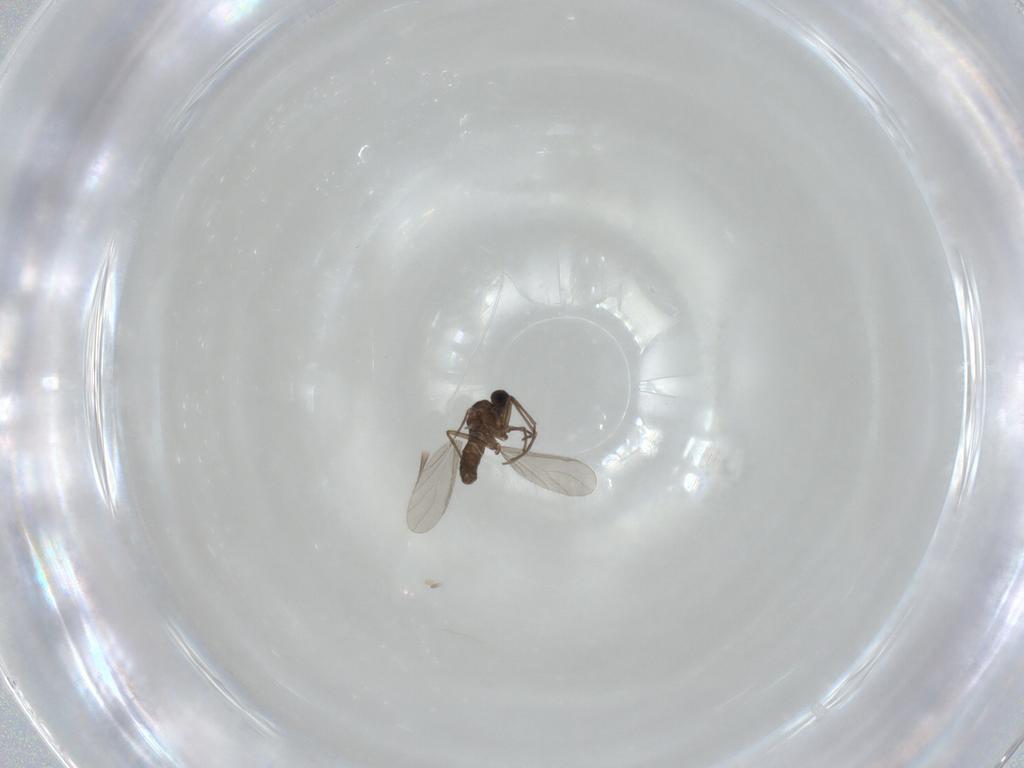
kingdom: Animalia
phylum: Arthropoda
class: Insecta
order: Diptera
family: Sciaridae
